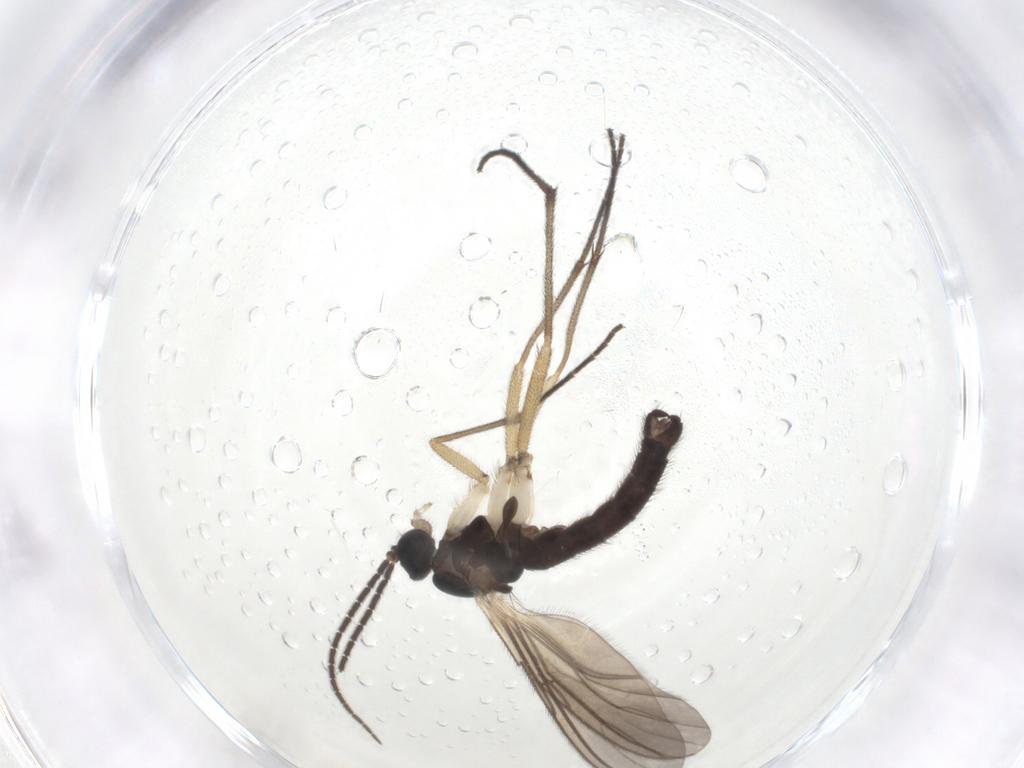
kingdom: Animalia
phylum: Arthropoda
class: Insecta
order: Diptera
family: Sciaridae
